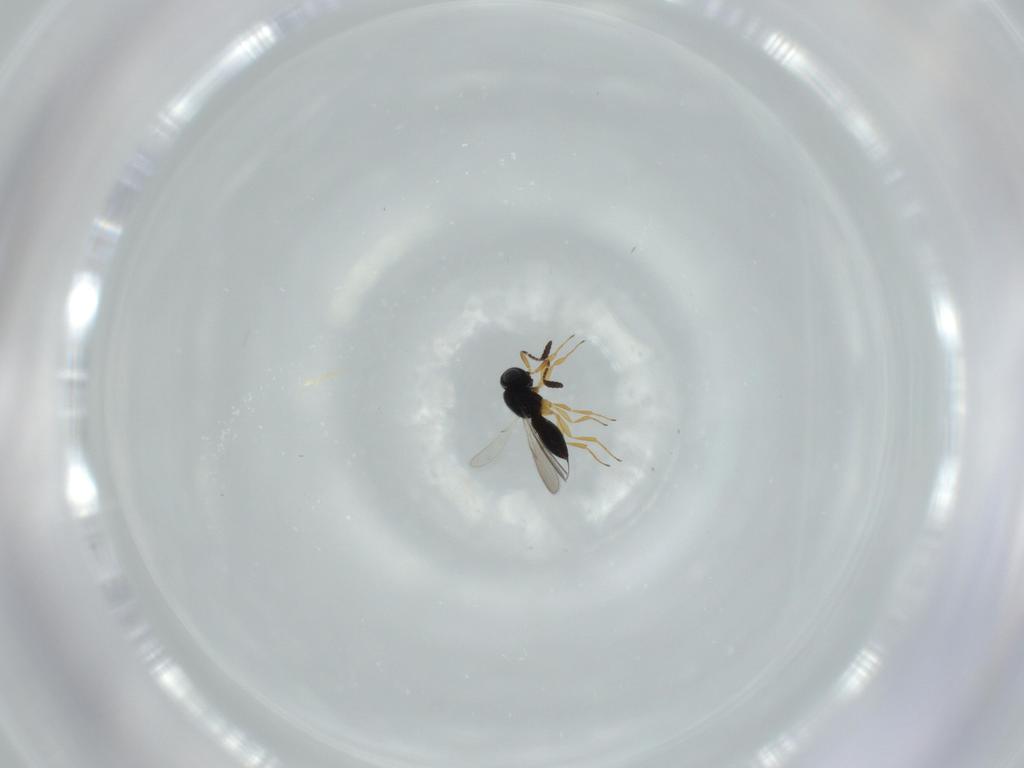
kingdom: Animalia
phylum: Arthropoda
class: Insecta
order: Hymenoptera
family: Scelionidae
